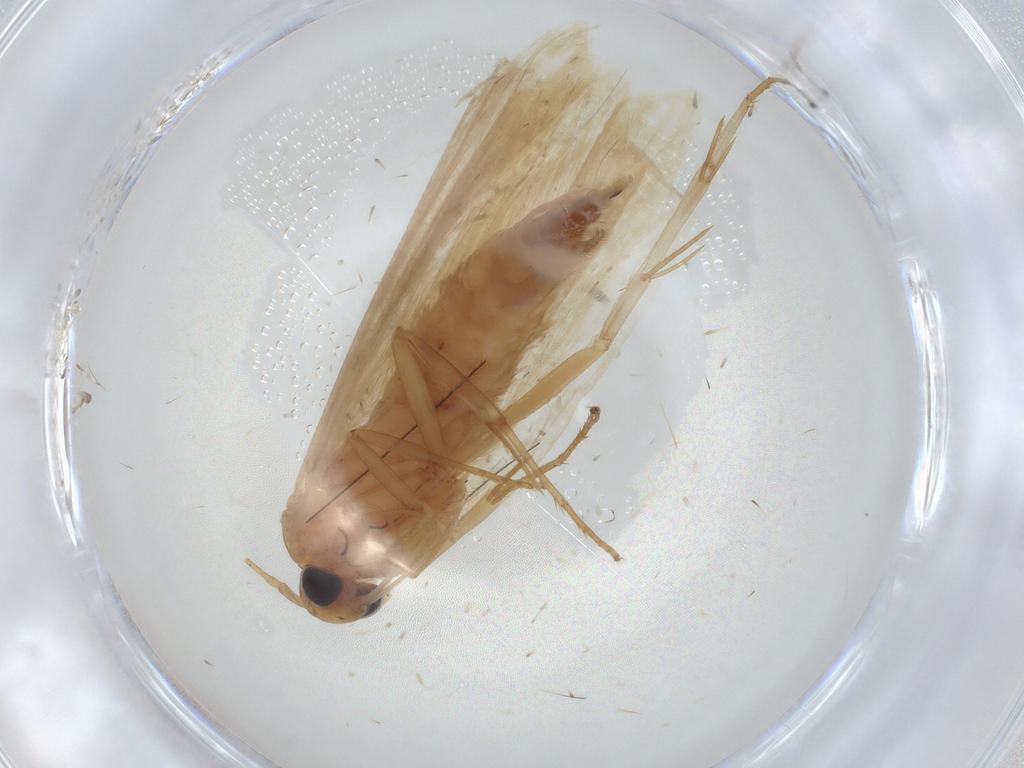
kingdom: Animalia
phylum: Arthropoda
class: Insecta
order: Lepidoptera
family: Depressariidae
